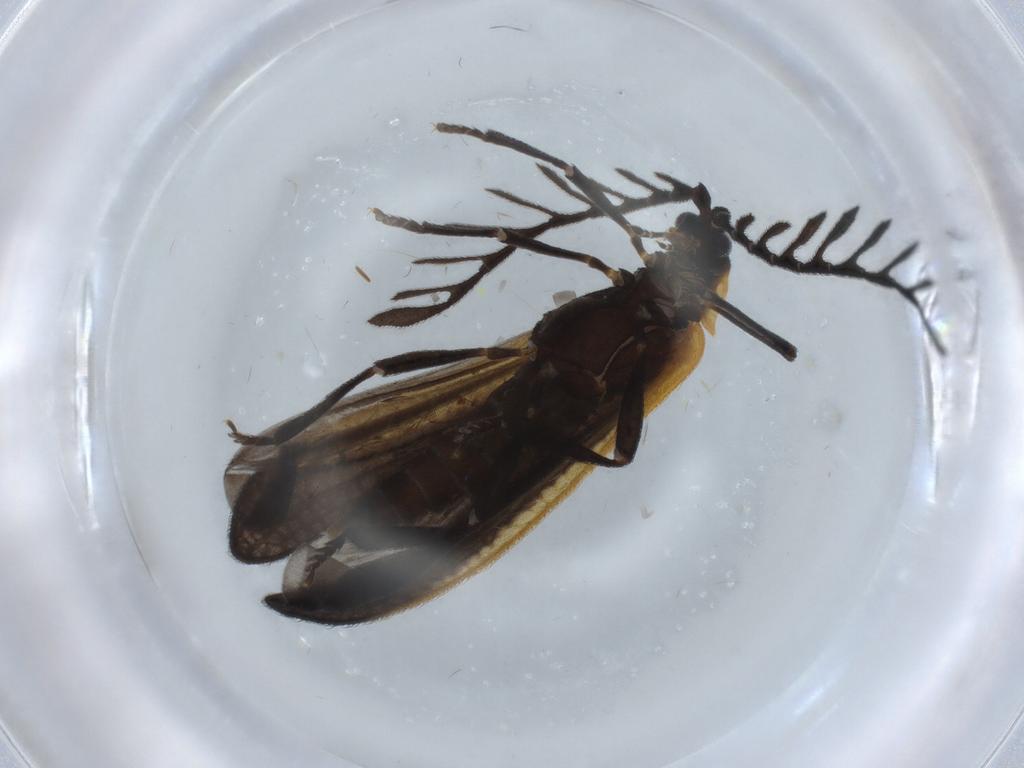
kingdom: Animalia
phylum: Arthropoda
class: Insecta
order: Coleoptera
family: Lycidae
